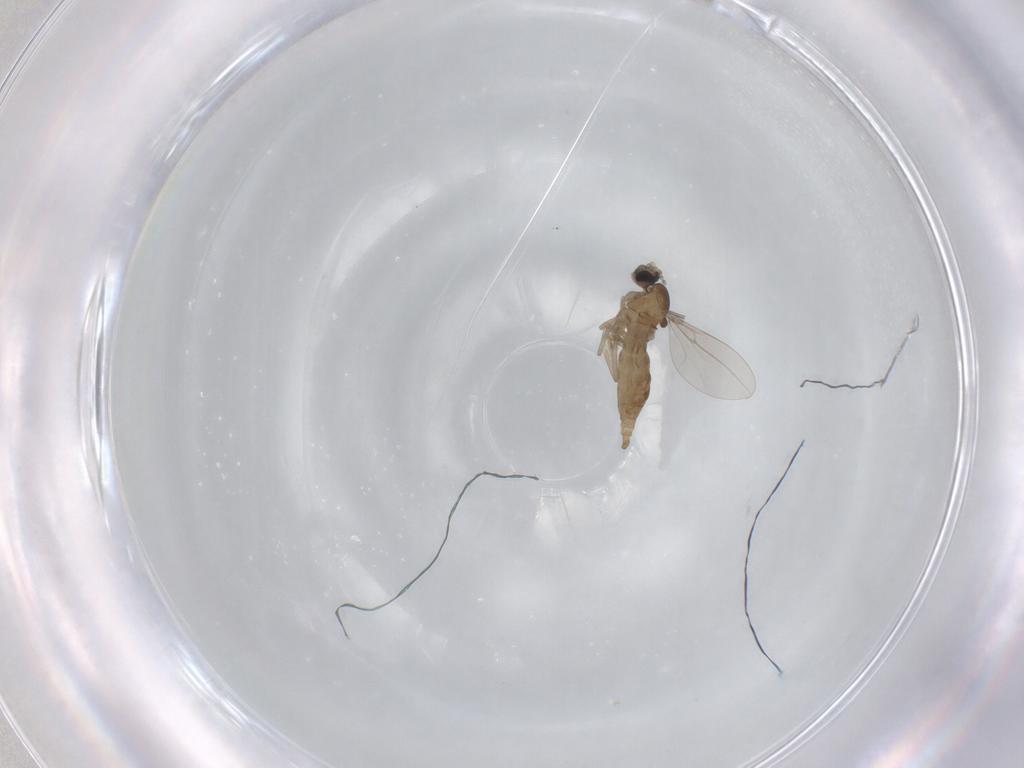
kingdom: Animalia
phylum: Arthropoda
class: Insecta
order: Diptera
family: Cecidomyiidae
